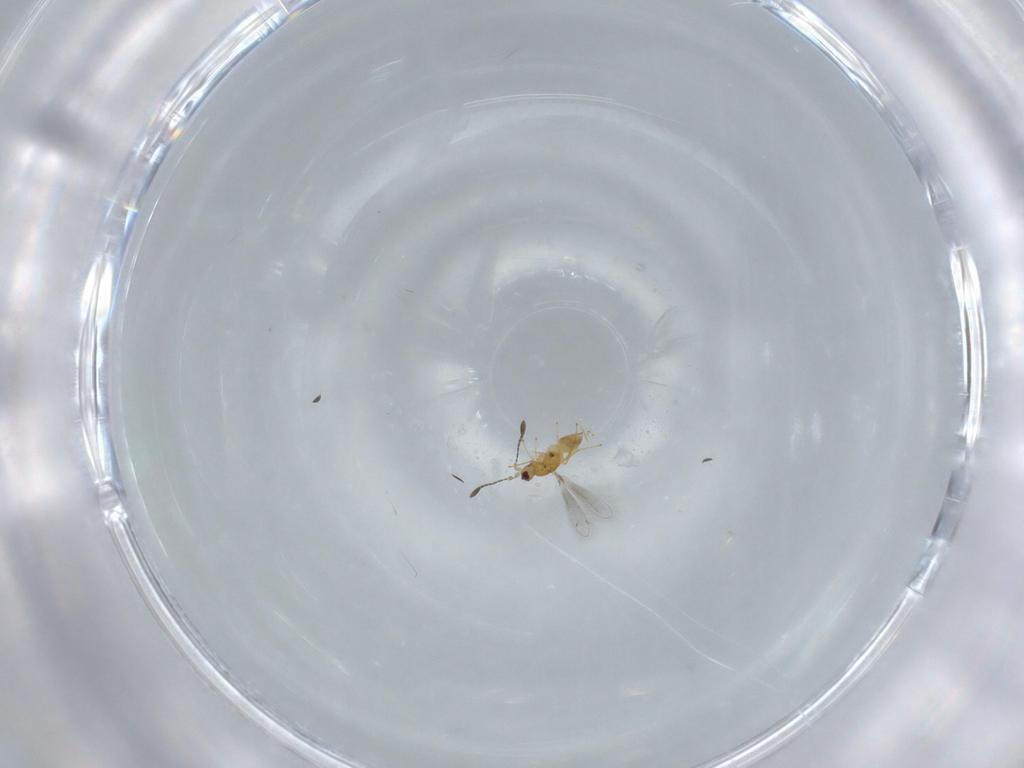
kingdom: Animalia
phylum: Arthropoda
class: Insecta
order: Hymenoptera
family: Mymaridae
